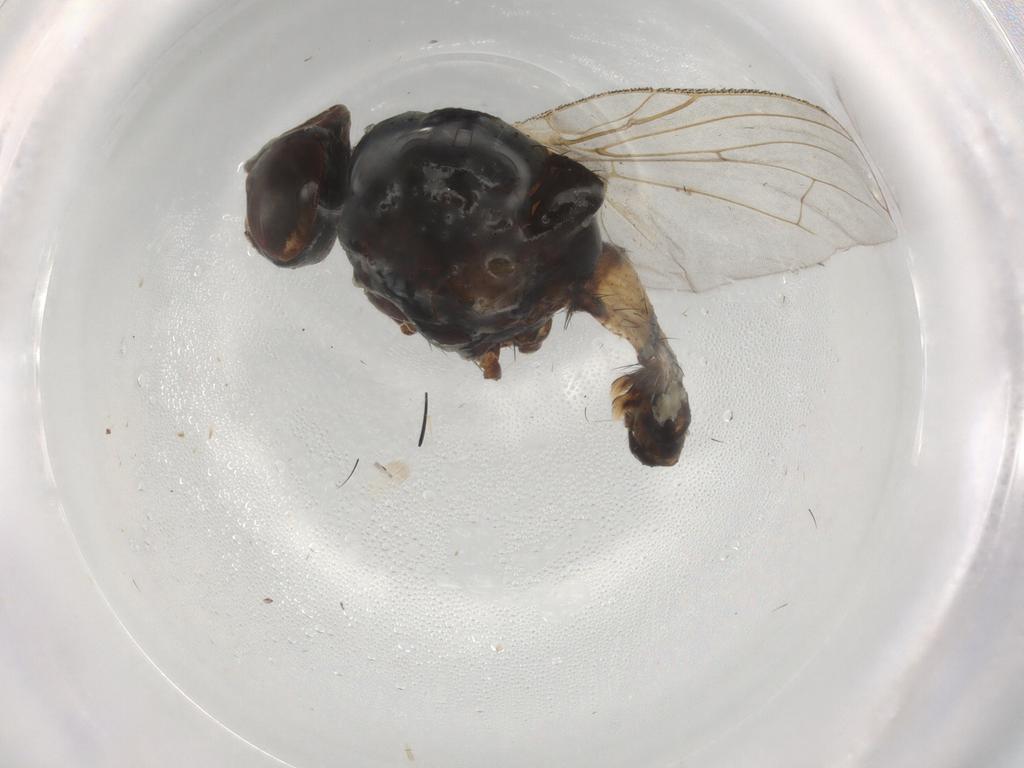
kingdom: Animalia
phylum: Arthropoda
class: Insecta
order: Diptera
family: Anthomyiidae
